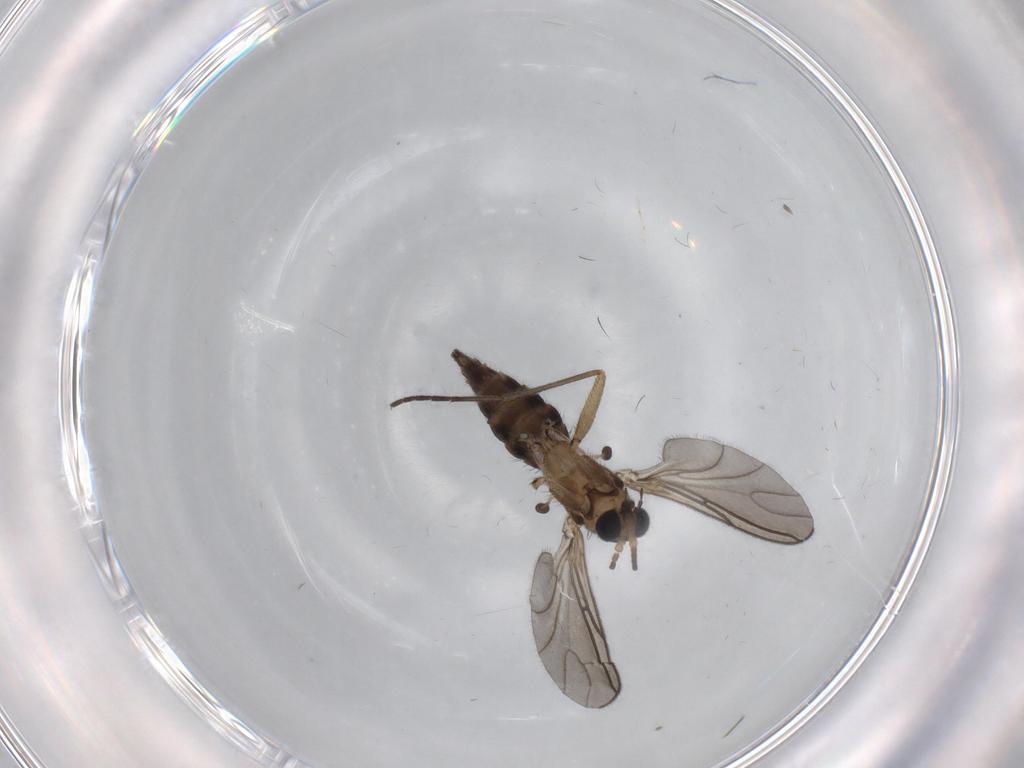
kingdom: Animalia
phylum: Arthropoda
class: Insecta
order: Diptera
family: Sciaridae
